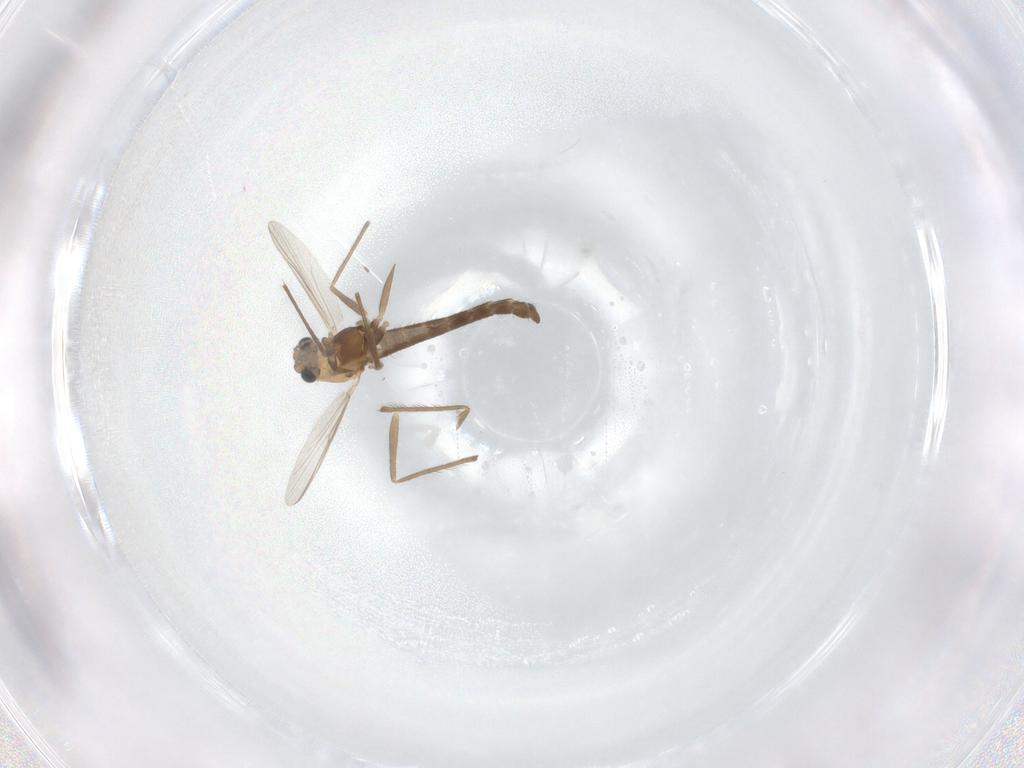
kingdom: Animalia
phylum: Arthropoda
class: Insecta
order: Diptera
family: Chironomidae
